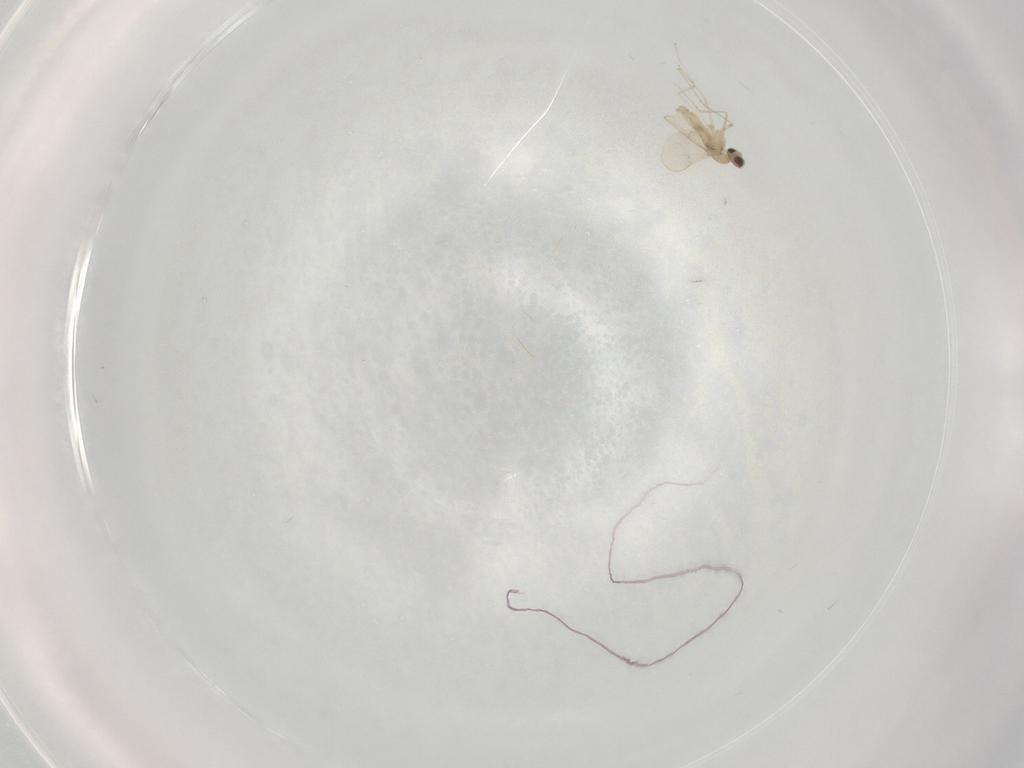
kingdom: Animalia
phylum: Arthropoda
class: Insecta
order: Diptera
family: Cecidomyiidae
